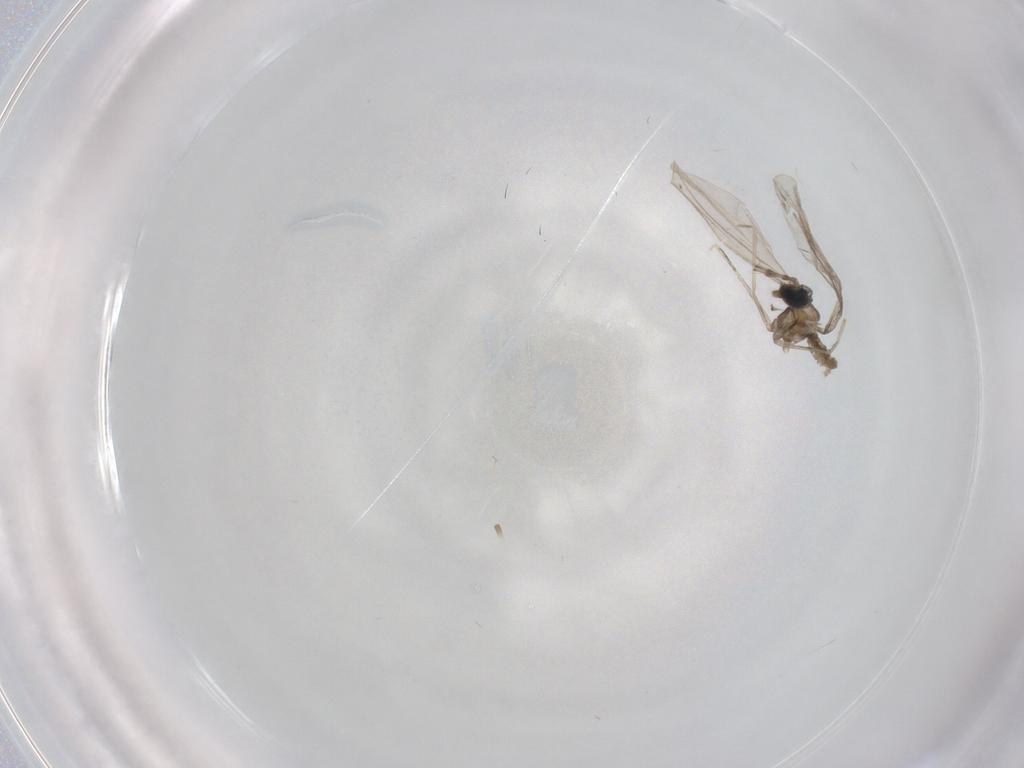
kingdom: Animalia
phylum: Arthropoda
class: Insecta
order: Diptera
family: Cecidomyiidae
